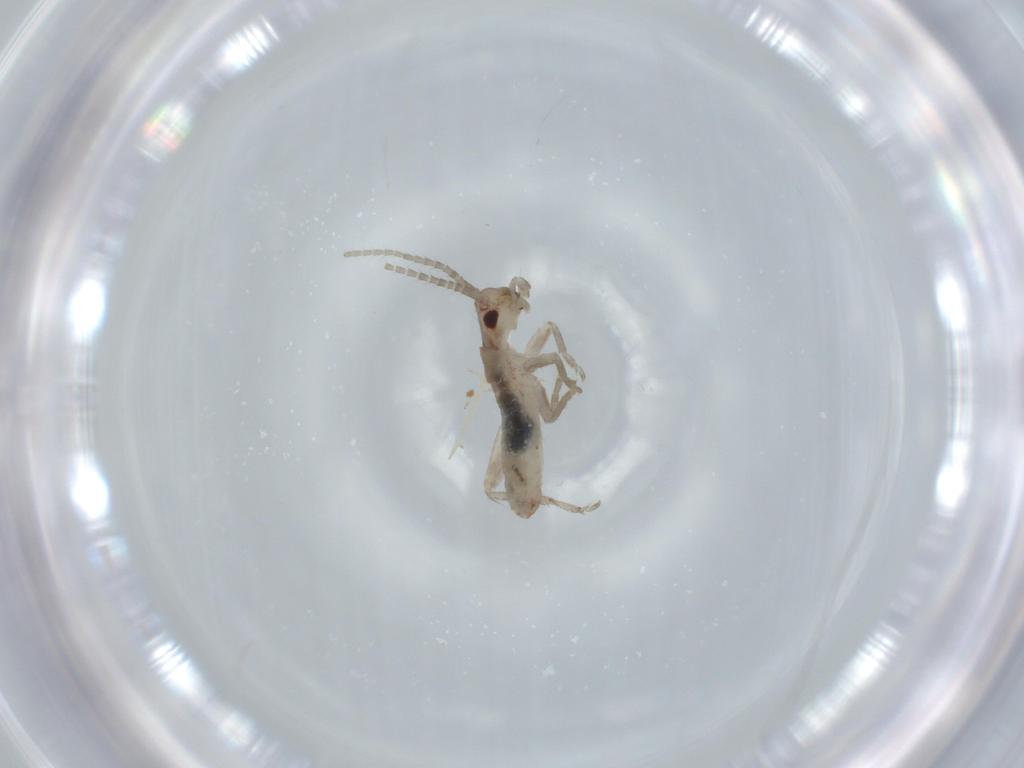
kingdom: Animalia
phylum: Arthropoda
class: Insecta
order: Orthoptera
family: Mogoplistidae
